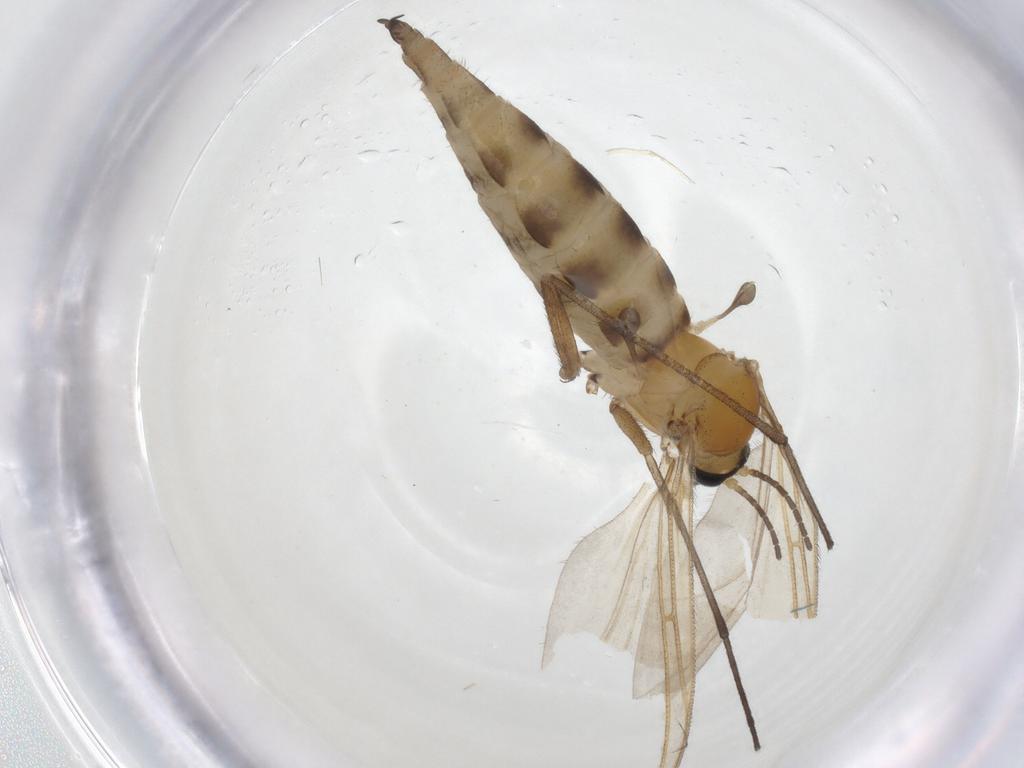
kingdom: Animalia
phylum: Arthropoda
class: Insecta
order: Diptera
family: Sciaridae
